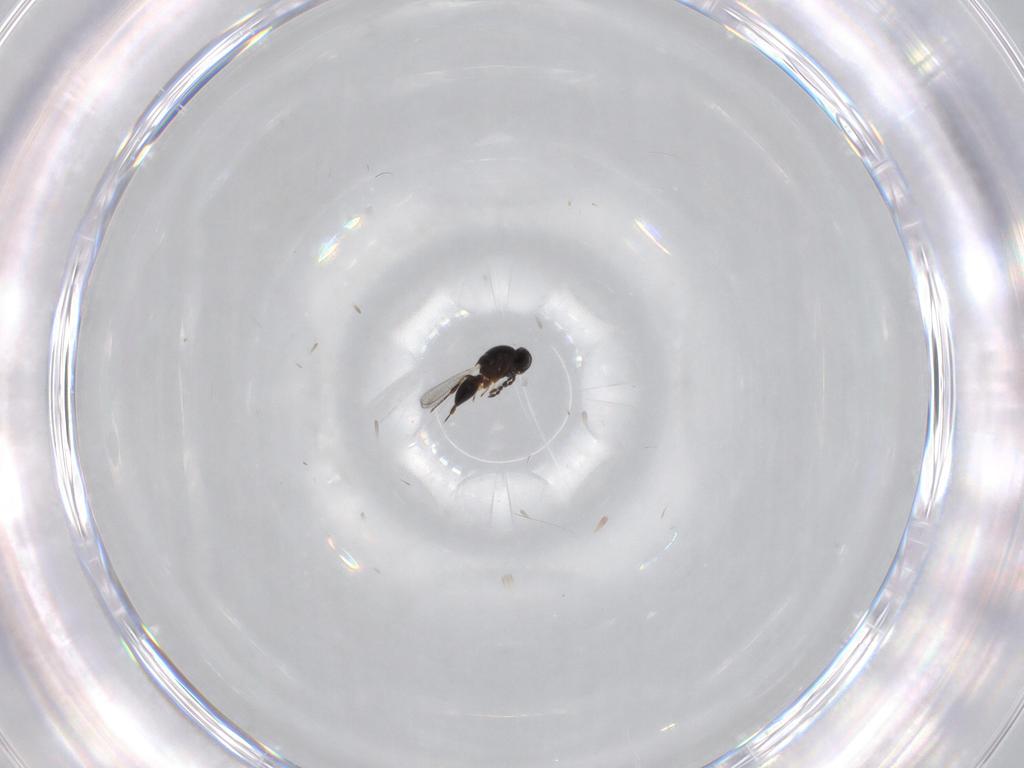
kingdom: Animalia
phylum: Arthropoda
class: Insecta
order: Hymenoptera
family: Platygastridae
